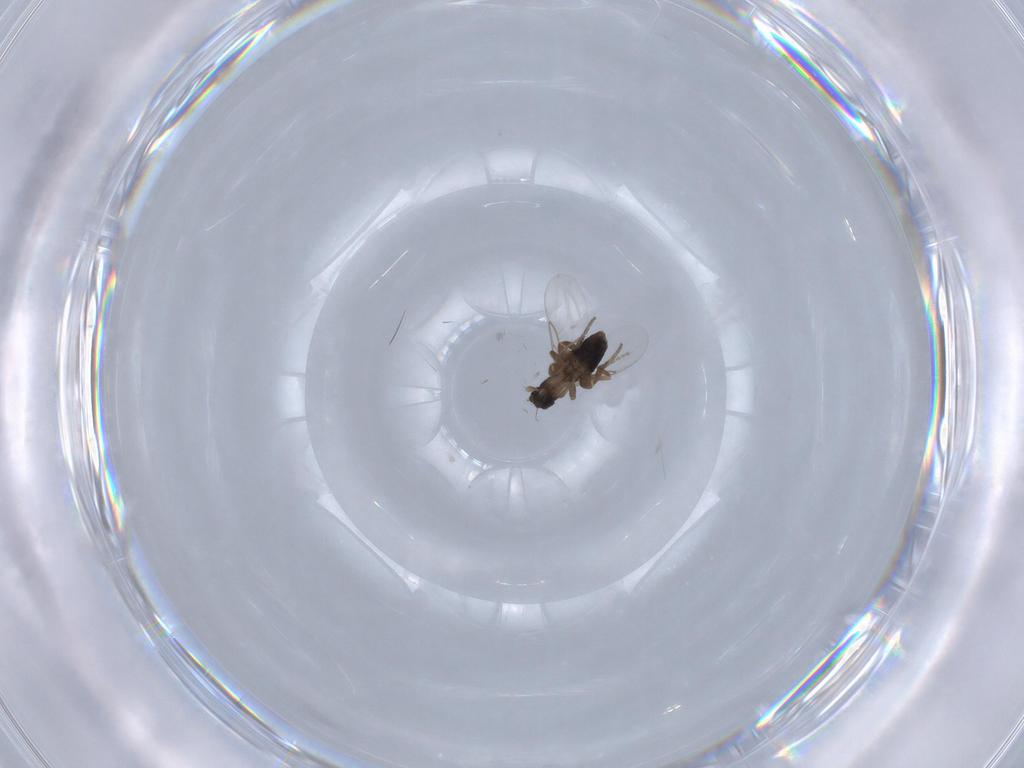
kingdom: Animalia
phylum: Arthropoda
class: Insecta
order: Diptera
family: Phoridae
